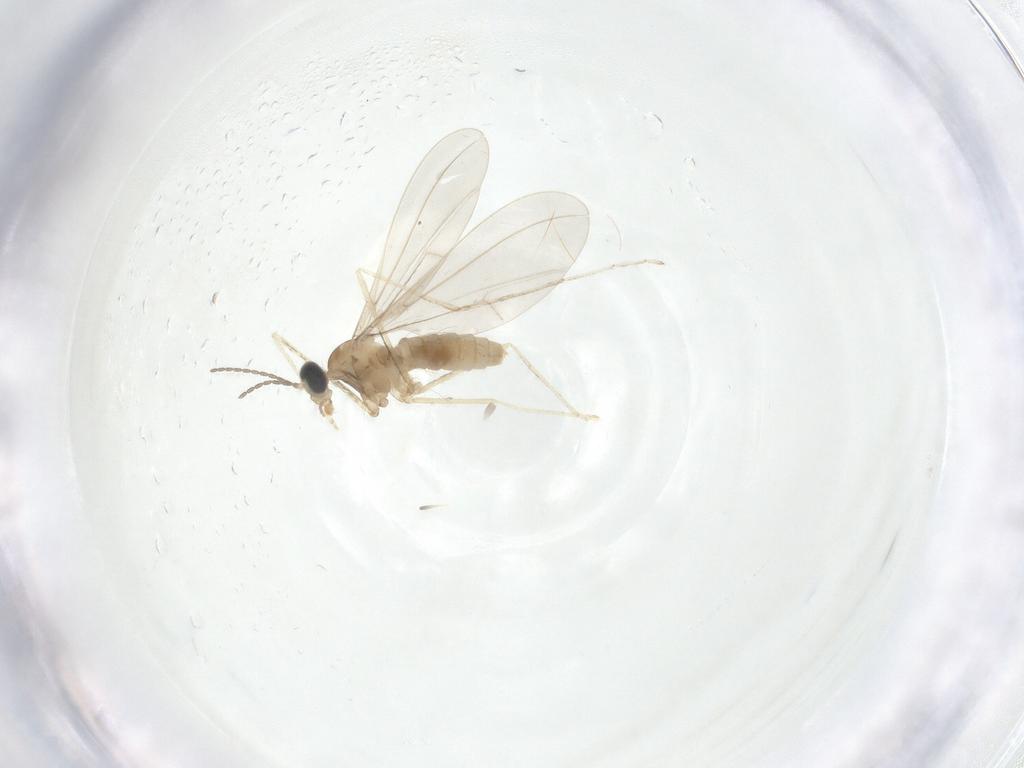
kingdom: Animalia
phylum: Arthropoda
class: Insecta
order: Diptera
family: Cecidomyiidae
